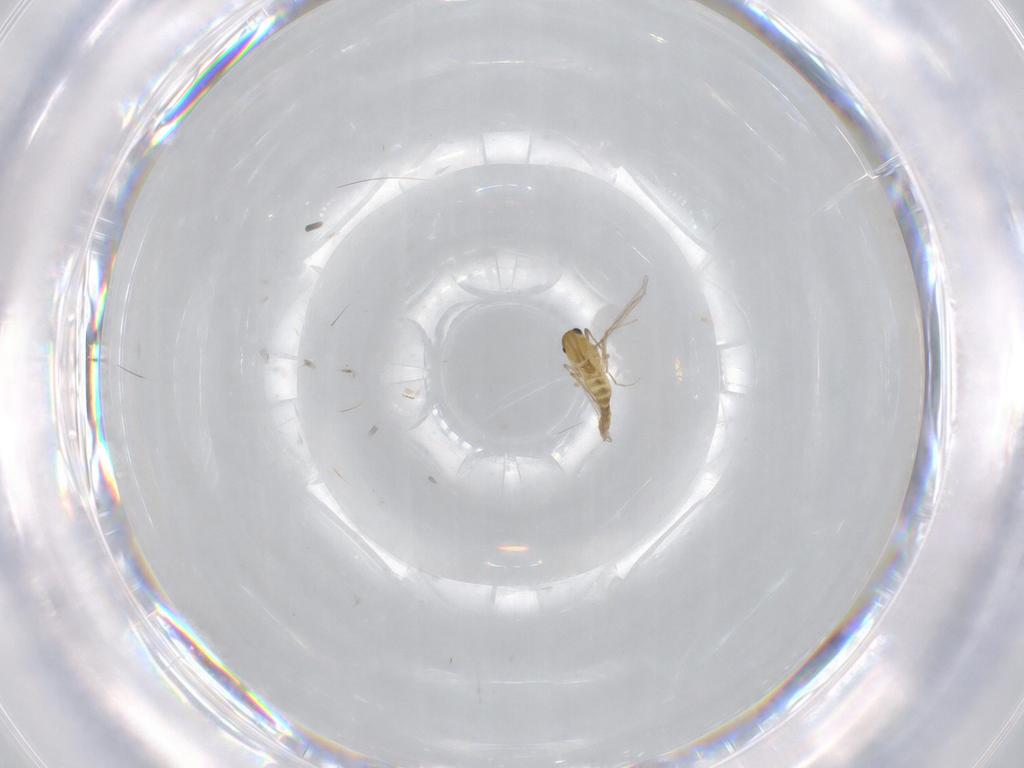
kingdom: Animalia
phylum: Arthropoda
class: Insecta
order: Diptera
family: Chironomidae
